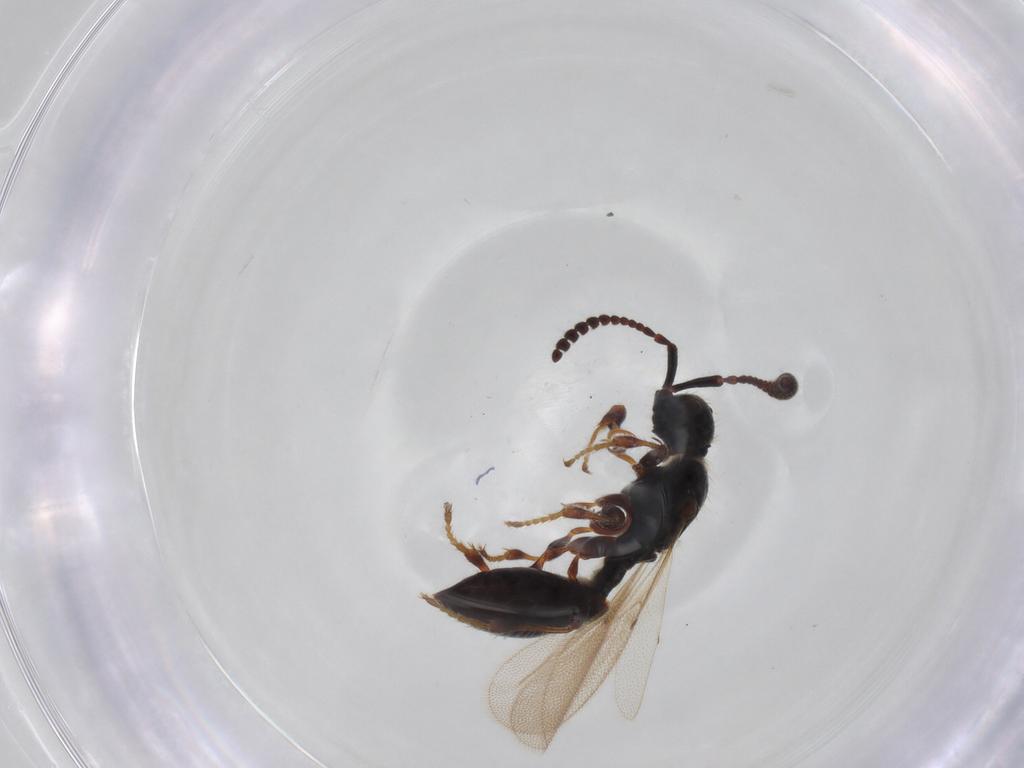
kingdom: Animalia
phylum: Arthropoda
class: Insecta
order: Hymenoptera
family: Diapriidae
